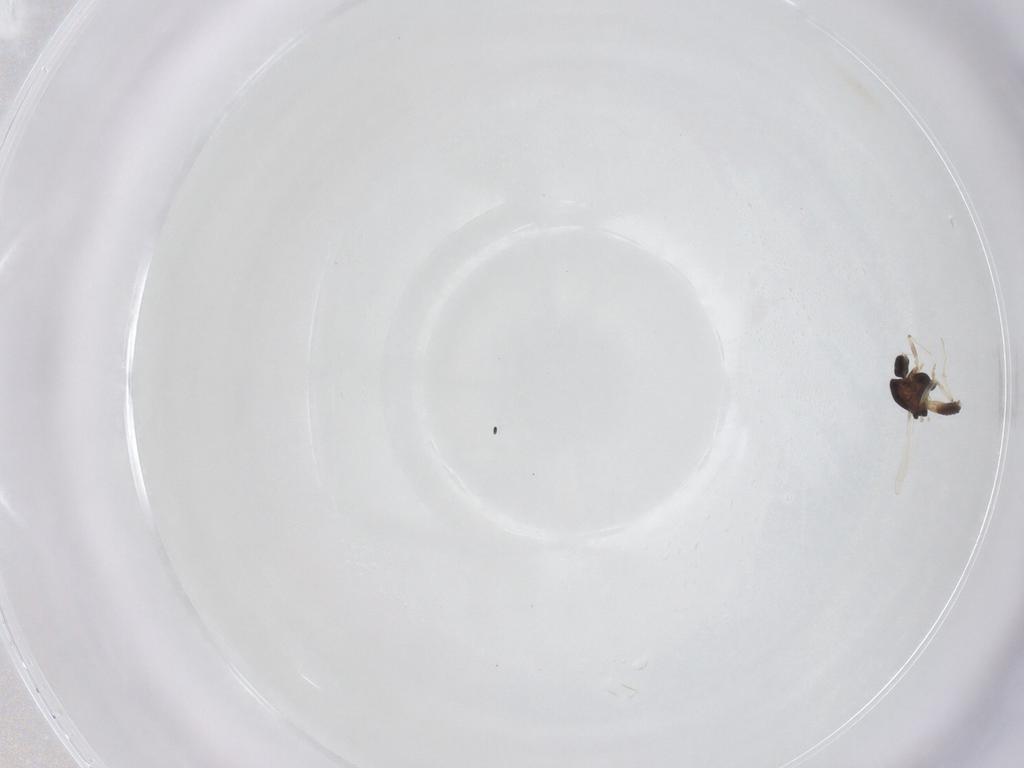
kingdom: Animalia
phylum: Arthropoda
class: Insecta
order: Diptera
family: Chironomidae
